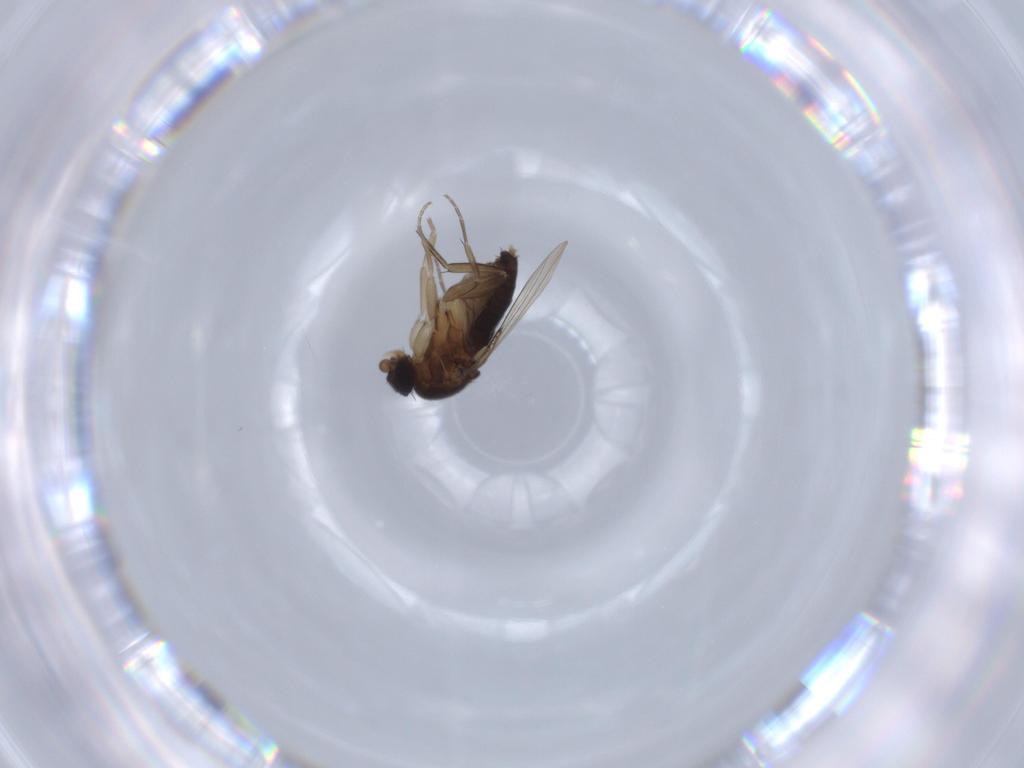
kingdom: Animalia
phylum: Arthropoda
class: Insecta
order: Diptera
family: Phoridae
